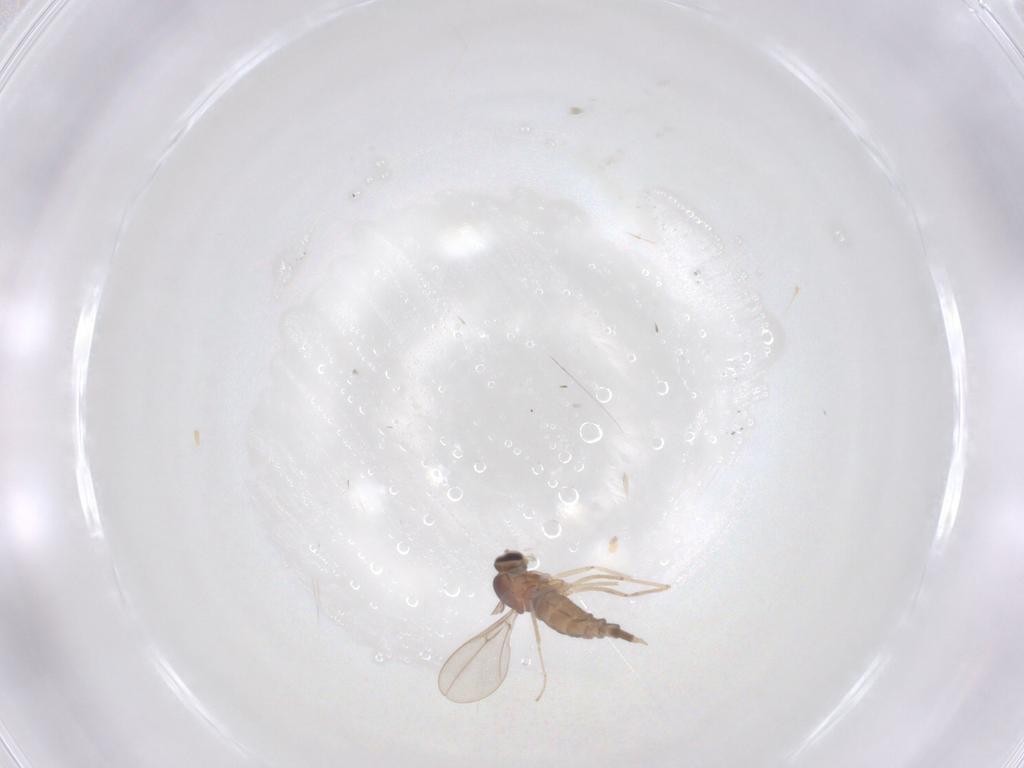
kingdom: Animalia
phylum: Arthropoda
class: Insecta
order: Diptera
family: Cecidomyiidae
